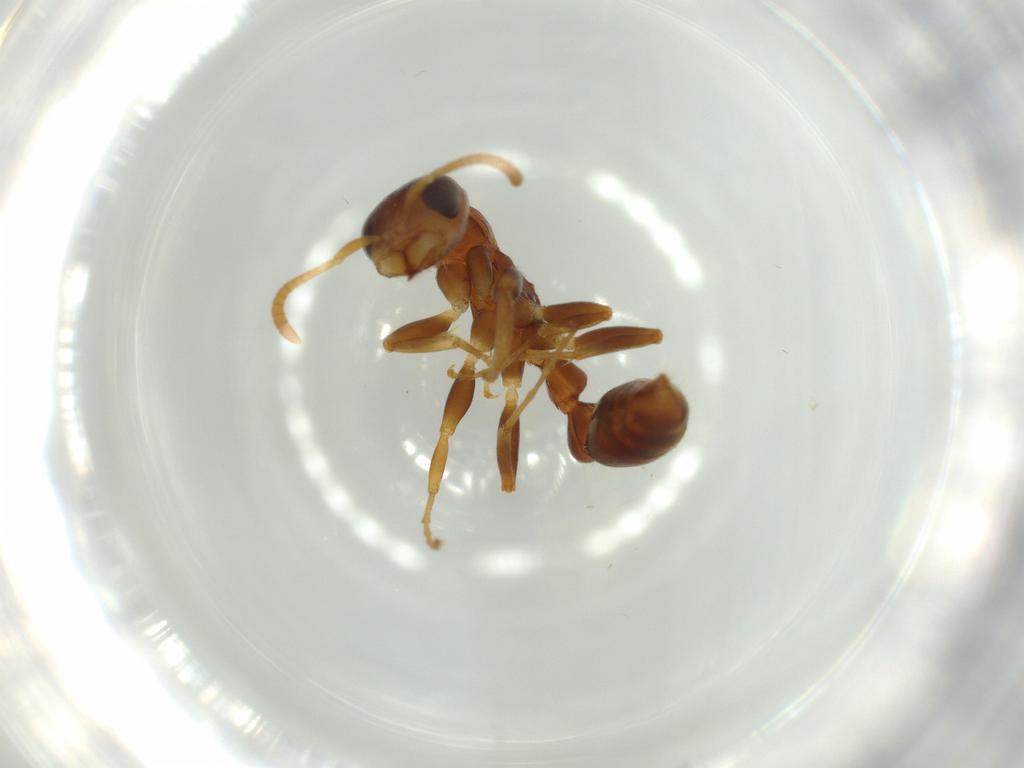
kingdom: Animalia
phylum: Arthropoda
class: Insecta
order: Hymenoptera
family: Formicidae
